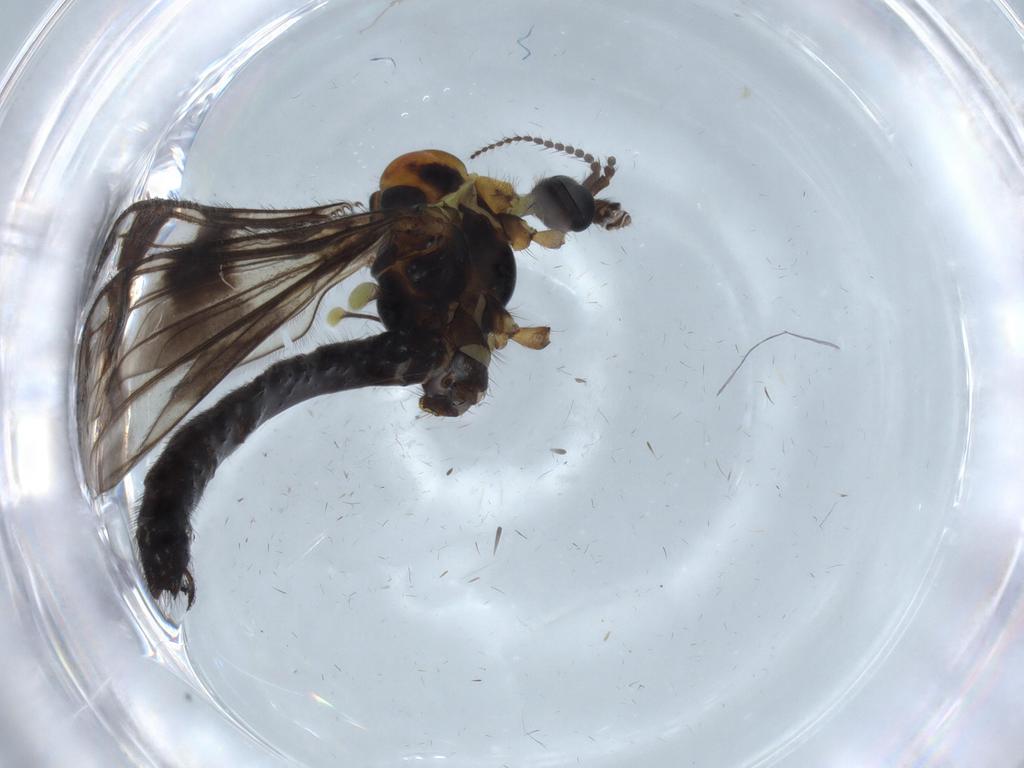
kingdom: Animalia
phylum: Arthropoda
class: Insecta
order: Diptera
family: Limoniidae
